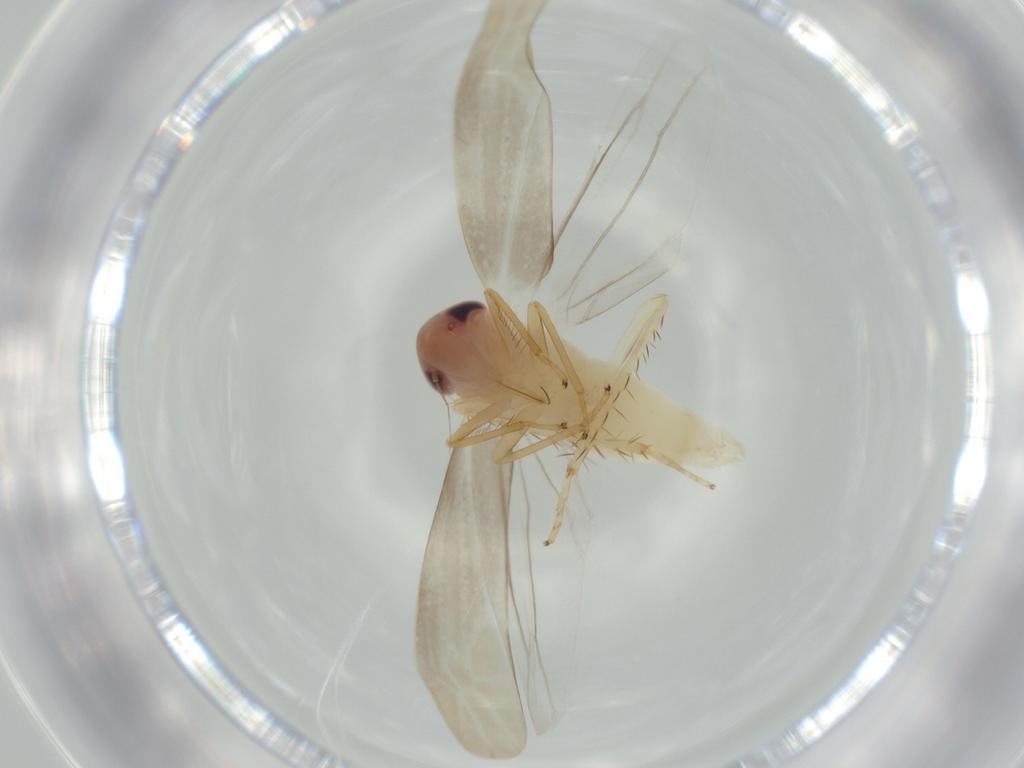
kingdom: Animalia
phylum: Arthropoda
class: Insecta
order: Hemiptera
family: Cicadellidae
